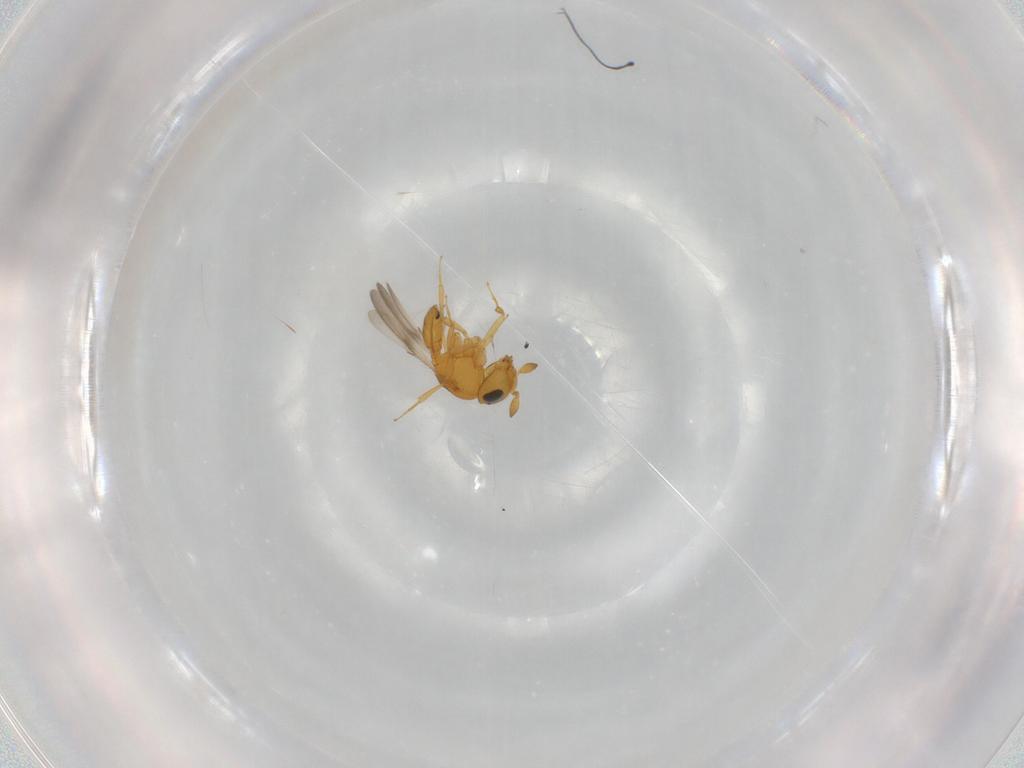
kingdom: Animalia
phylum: Arthropoda
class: Insecta
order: Hymenoptera
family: Scelionidae
